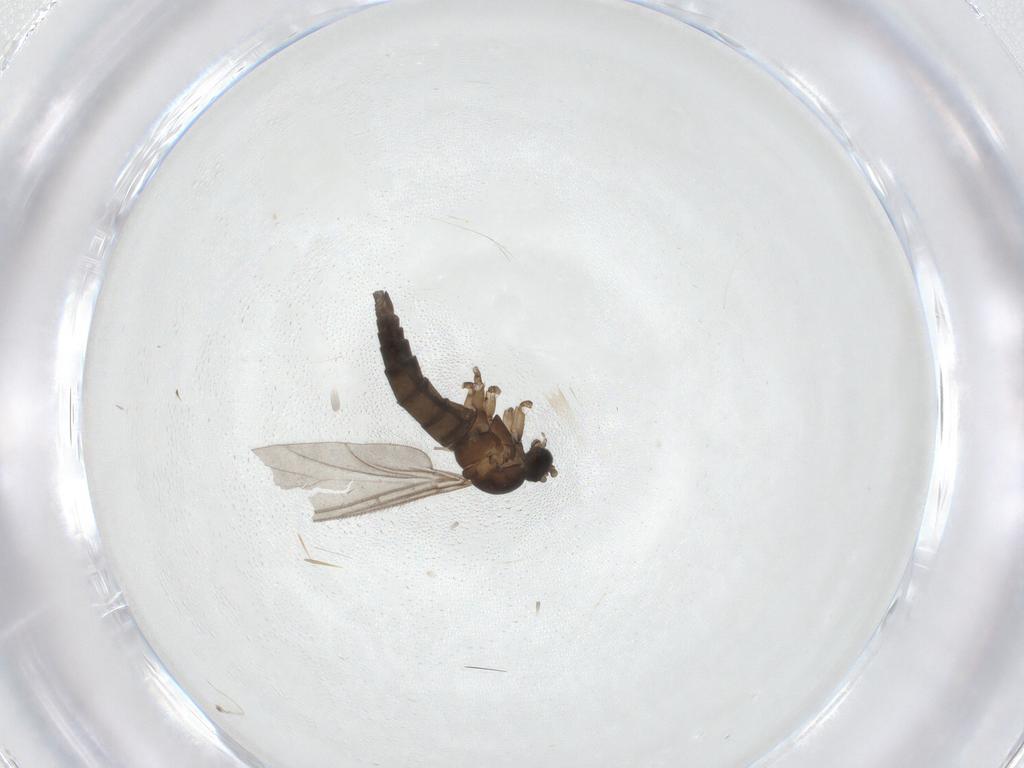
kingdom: Animalia
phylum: Arthropoda
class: Insecta
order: Diptera
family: Sciaridae
